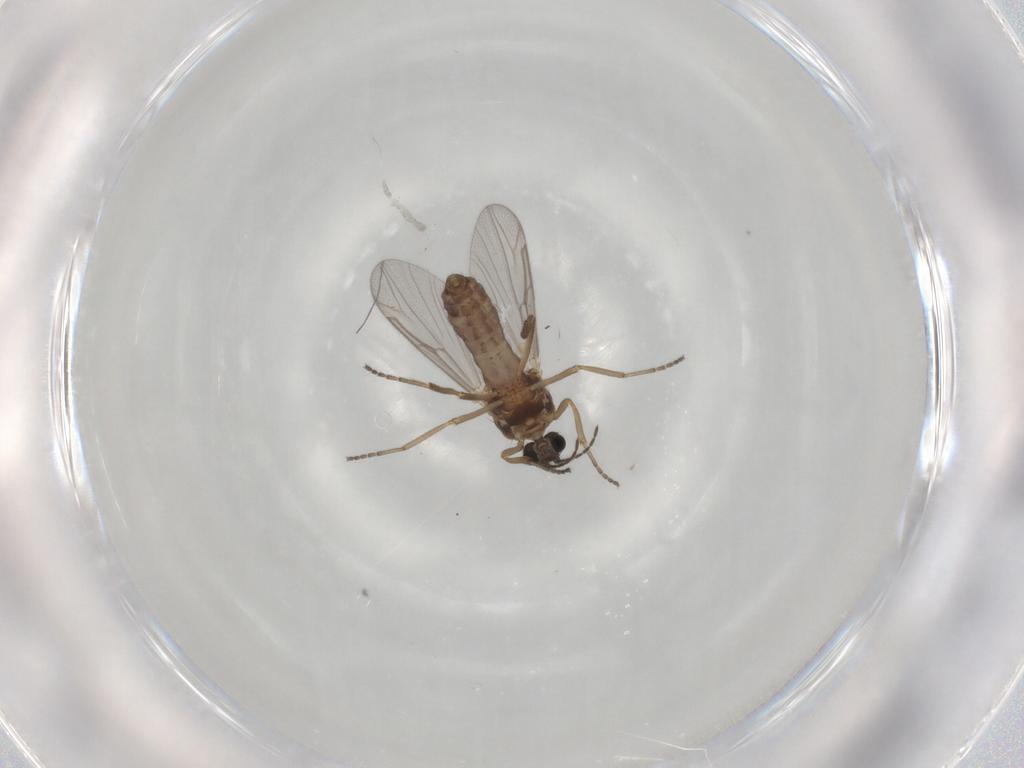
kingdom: Animalia
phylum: Arthropoda
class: Insecta
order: Diptera
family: Ceratopogonidae
